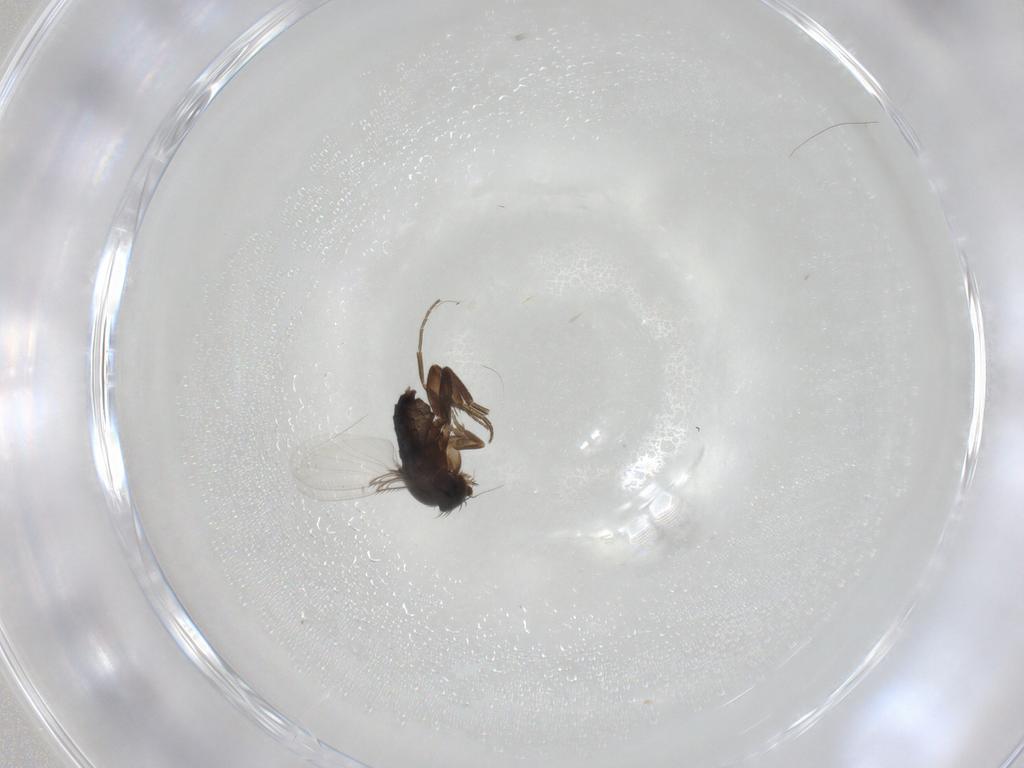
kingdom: Animalia
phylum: Arthropoda
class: Insecta
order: Diptera
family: Phoridae
